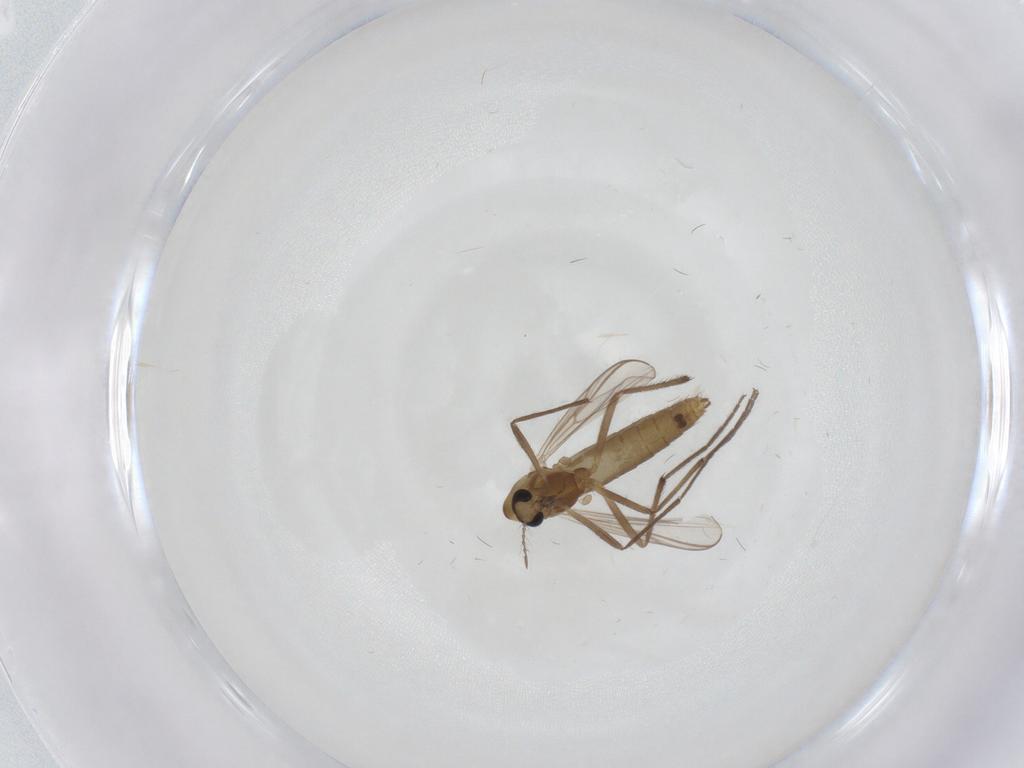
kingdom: Animalia
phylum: Arthropoda
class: Insecta
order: Diptera
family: Chironomidae
